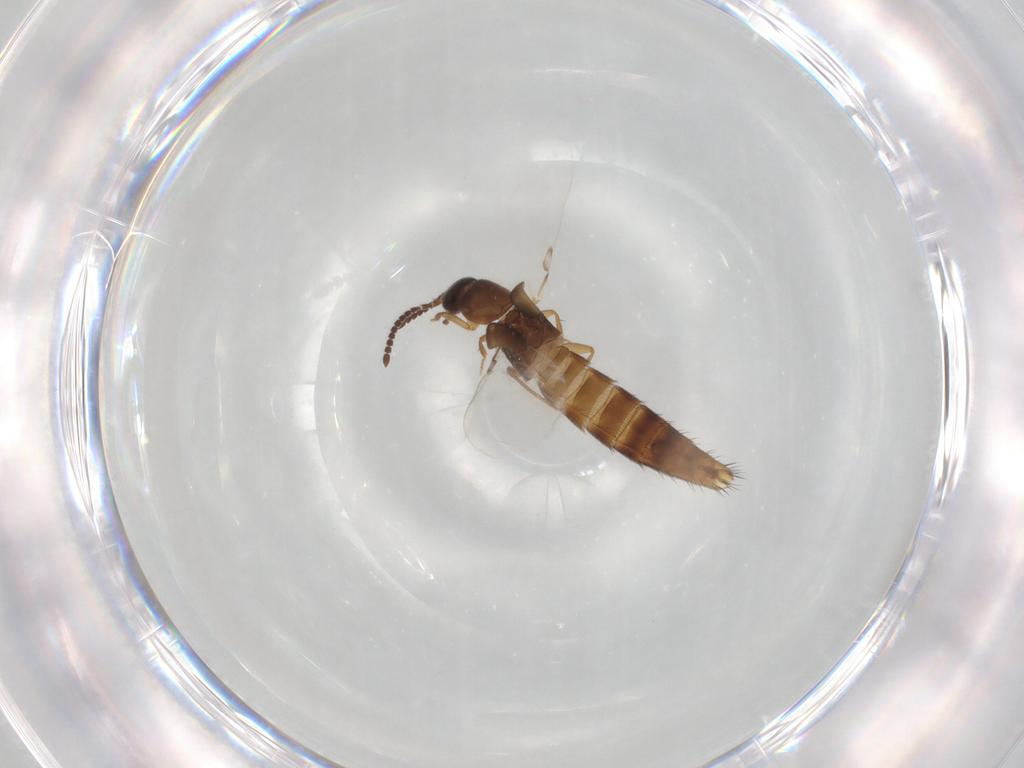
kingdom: Animalia
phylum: Arthropoda
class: Insecta
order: Coleoptera
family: Staphylinidae
